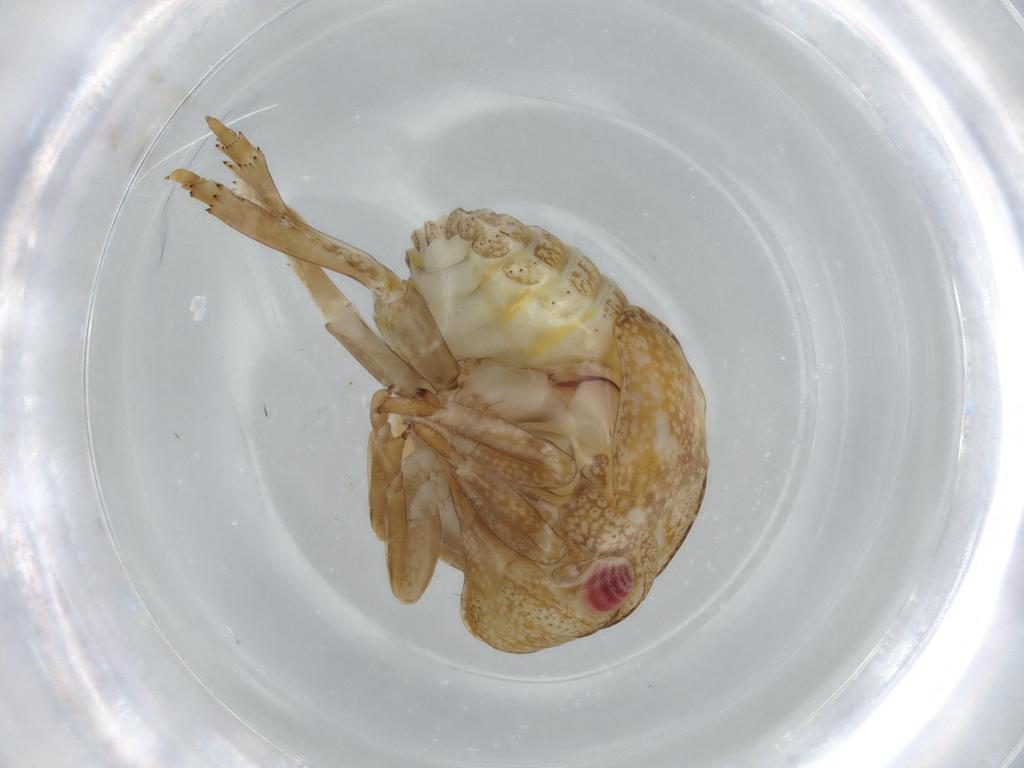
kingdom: Animalia
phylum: Arthropoda
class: Insecta
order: Hemiptera
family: Acanaloniidae
